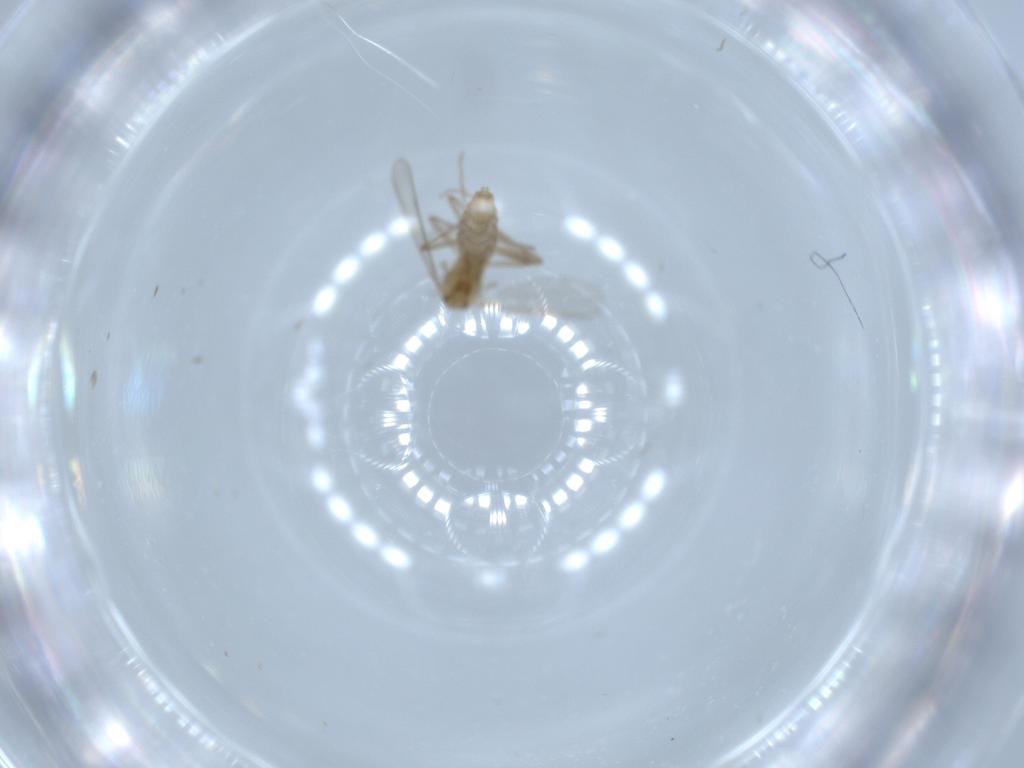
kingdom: Animalia
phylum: Arthropoda
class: Insecta
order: Diptera
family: Chironomidae
